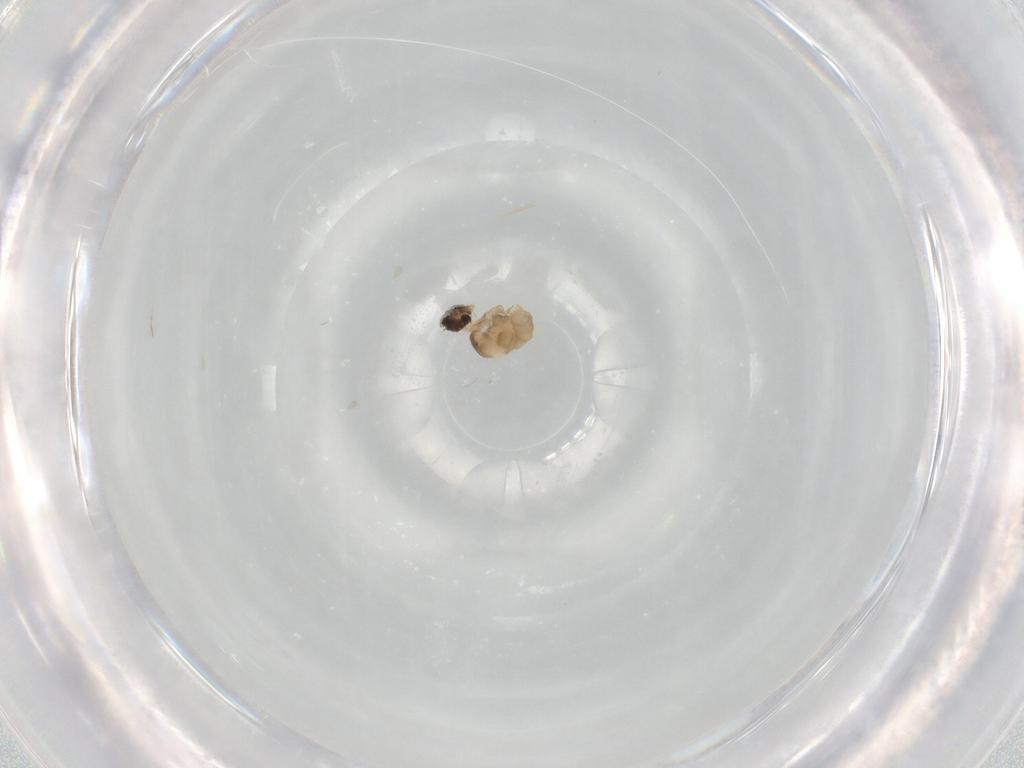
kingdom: Animalia
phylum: Arthropoda
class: Insecta
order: Diptera
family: Cecidomyiidae
